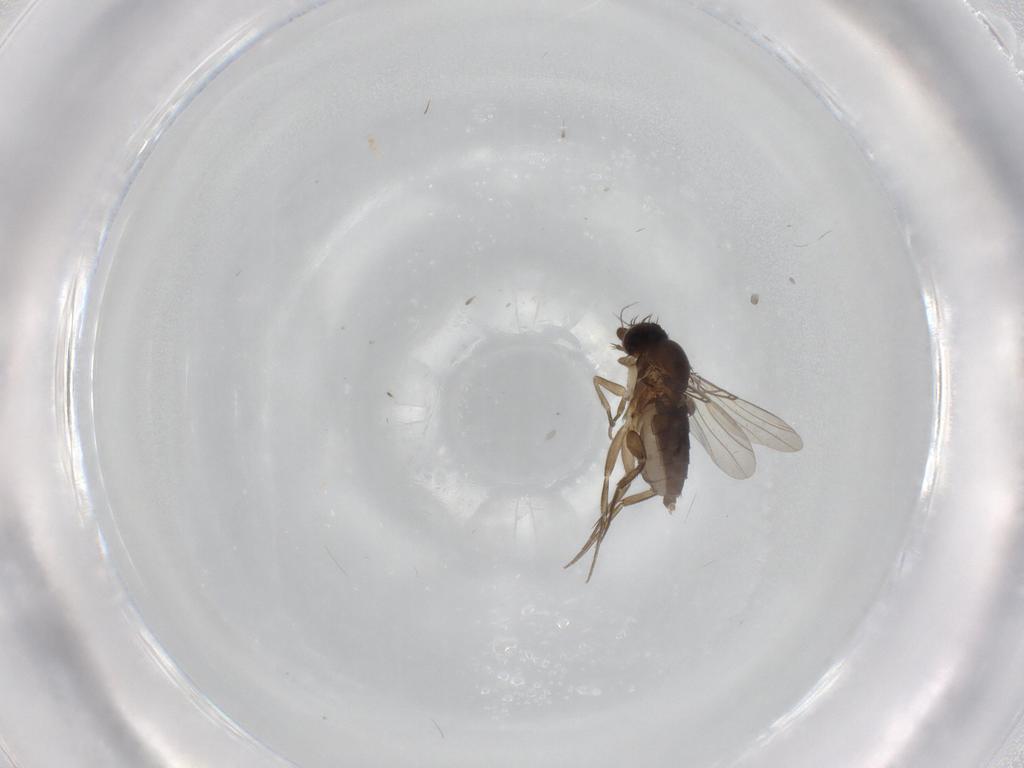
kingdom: Animalia
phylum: Arthropoda
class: Insecta
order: Diptera
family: Phoridae
